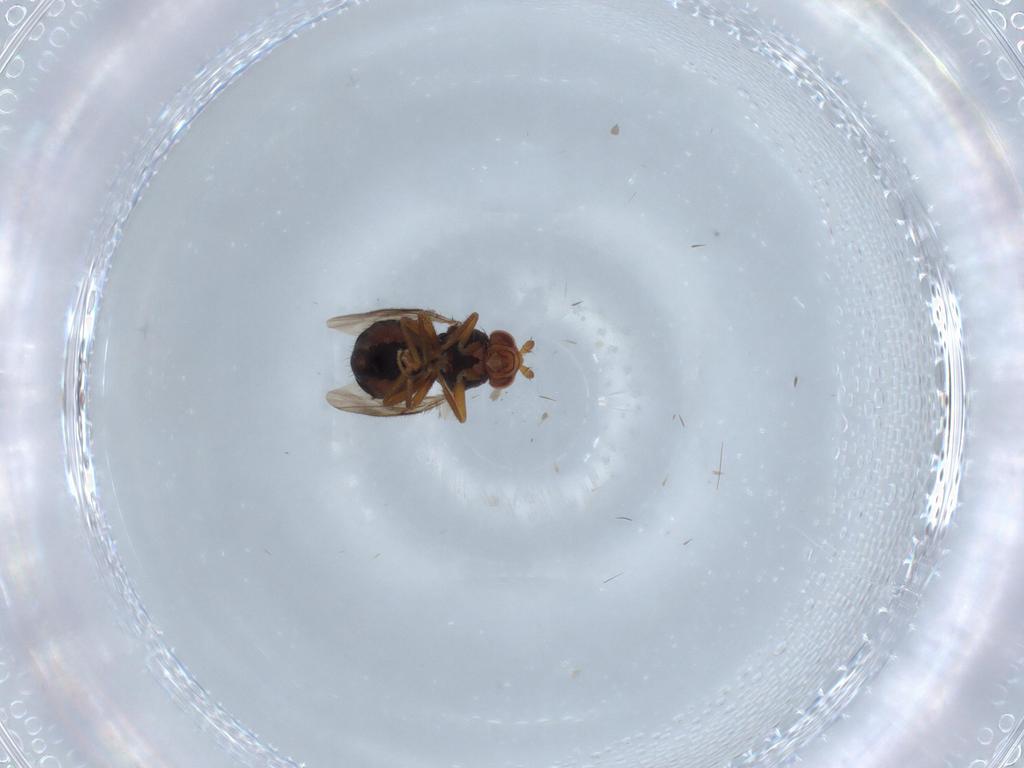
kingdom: Animalia
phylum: Arthropoda
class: Insecta
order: Diptera
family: Sphaeroceridae
